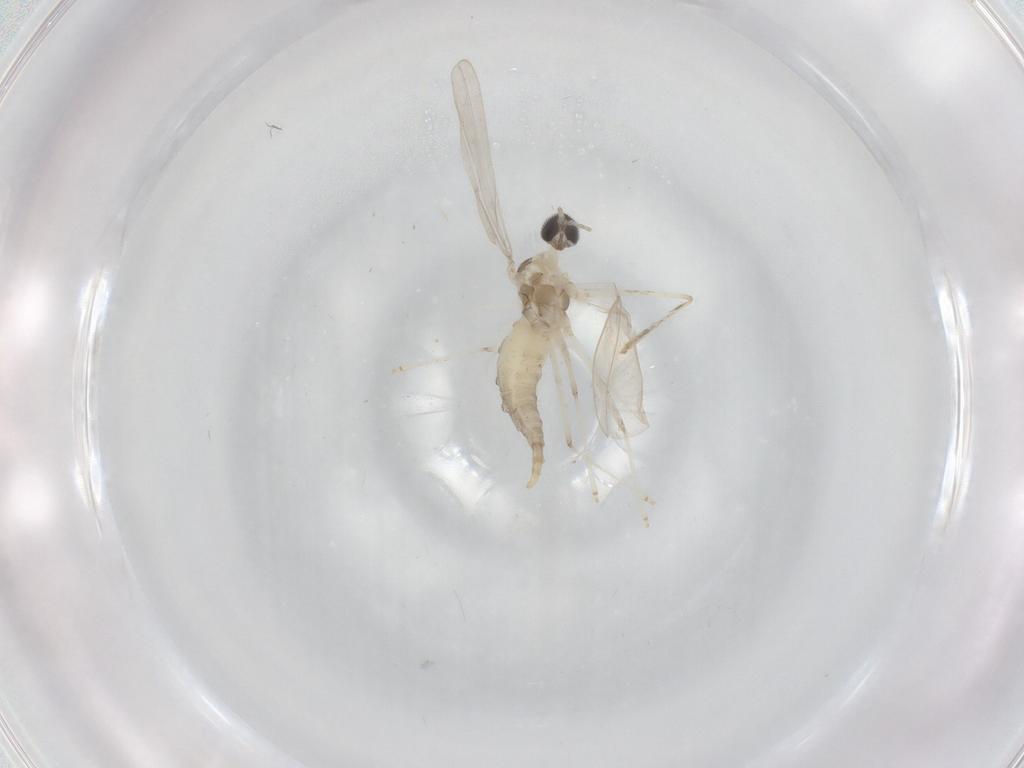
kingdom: Animalia
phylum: Arthropoda
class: Insecta
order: Diptera
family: Cecidomyiidae
